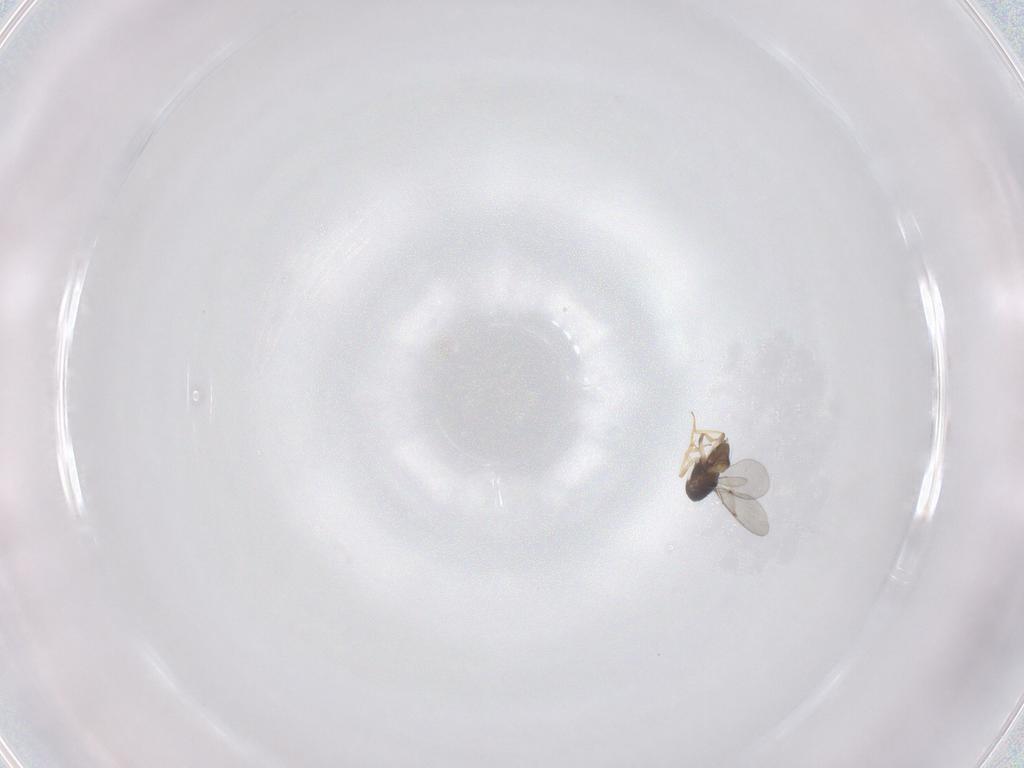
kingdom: Animalia
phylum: Arthropoda
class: Insecta
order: Hymenoptera
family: Encyrtidae
